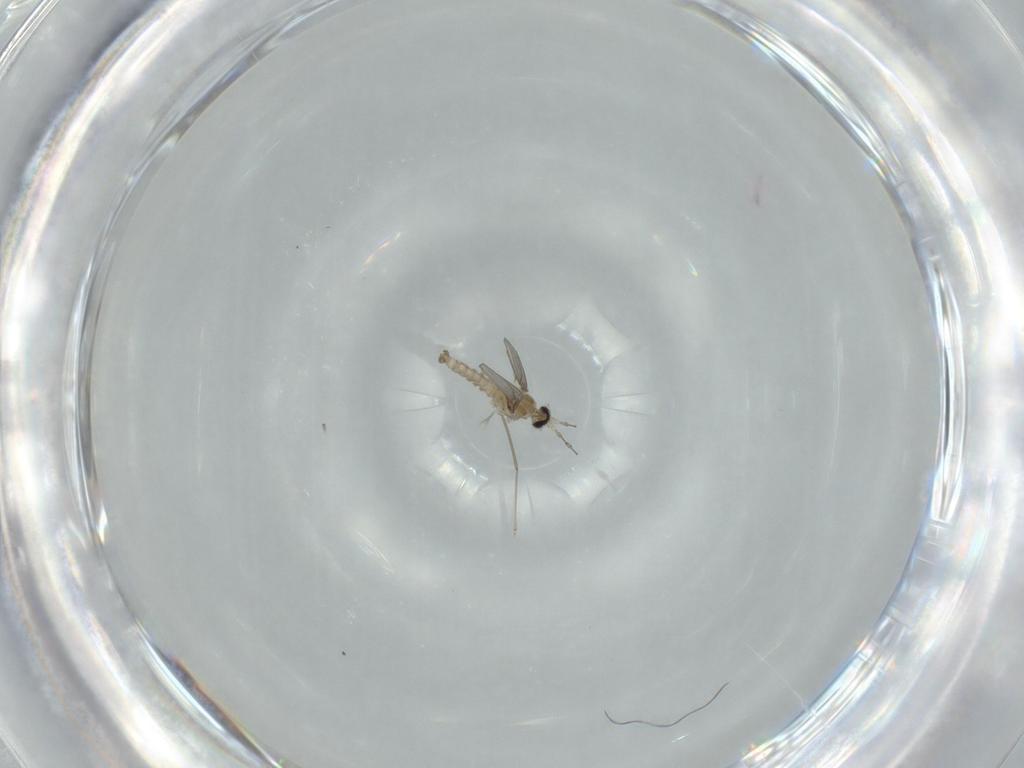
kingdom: Animalia
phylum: Arthropoda
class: Insecta
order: Diptera
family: Cecidomyiidae
